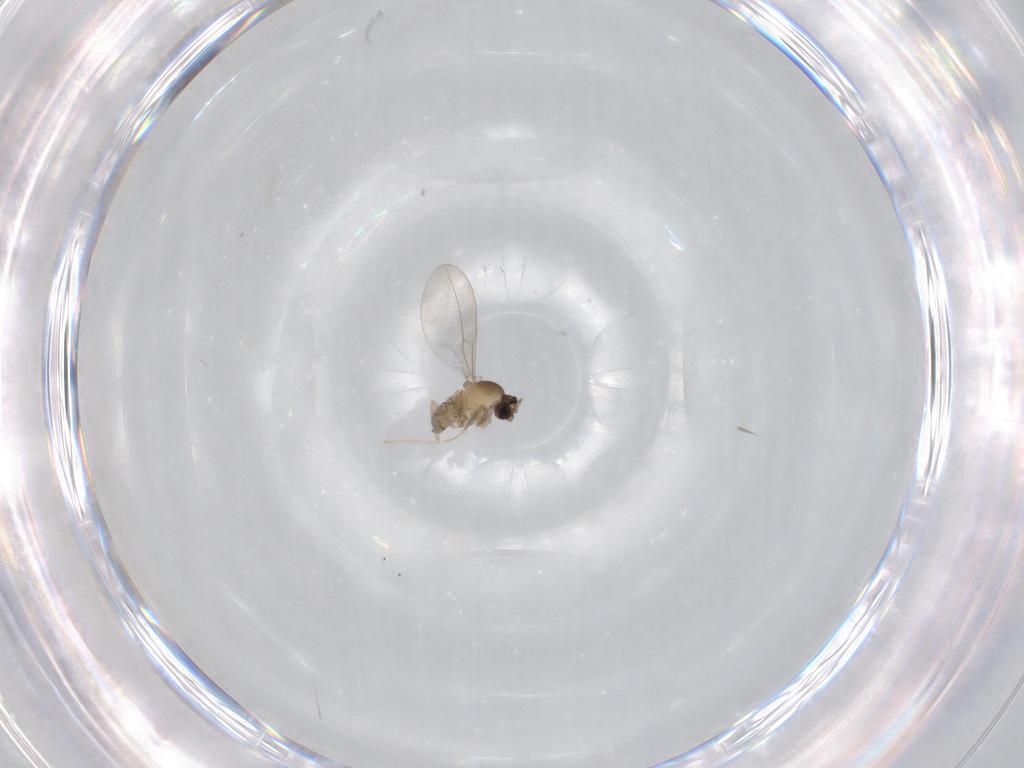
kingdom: Animalia
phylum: Arthropoda
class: Insecta
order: Diptera
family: Cecidomyiidae
